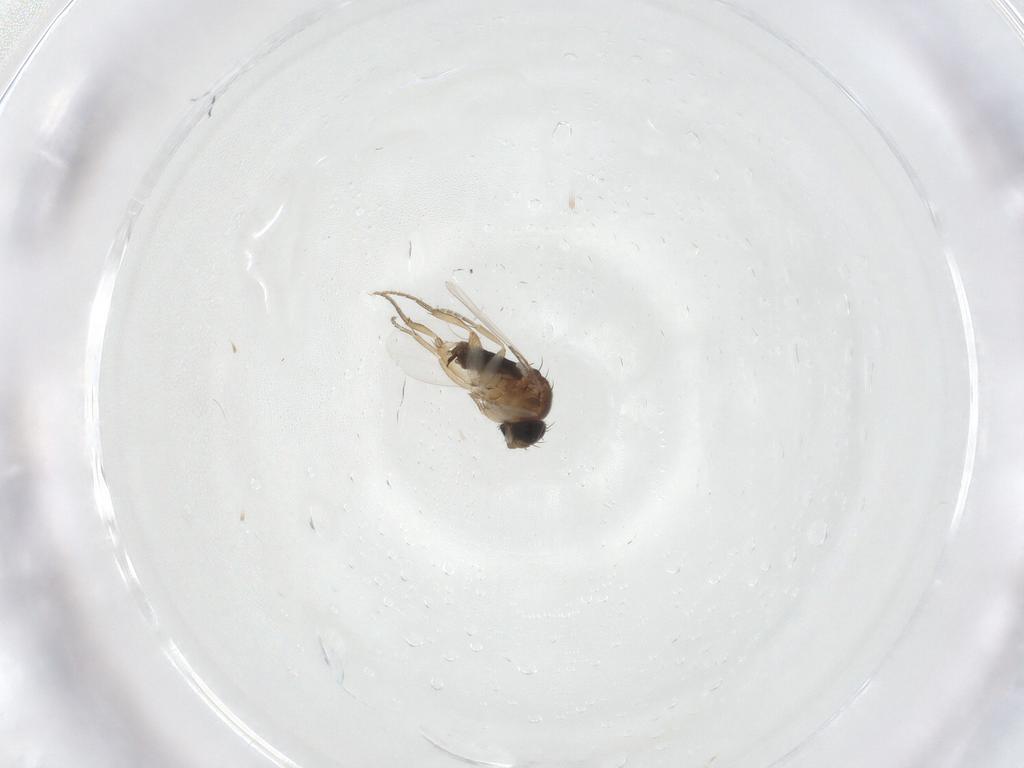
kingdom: Animalia
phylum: Arthropoda
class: Insecta
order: Diptera
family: Phoridae
